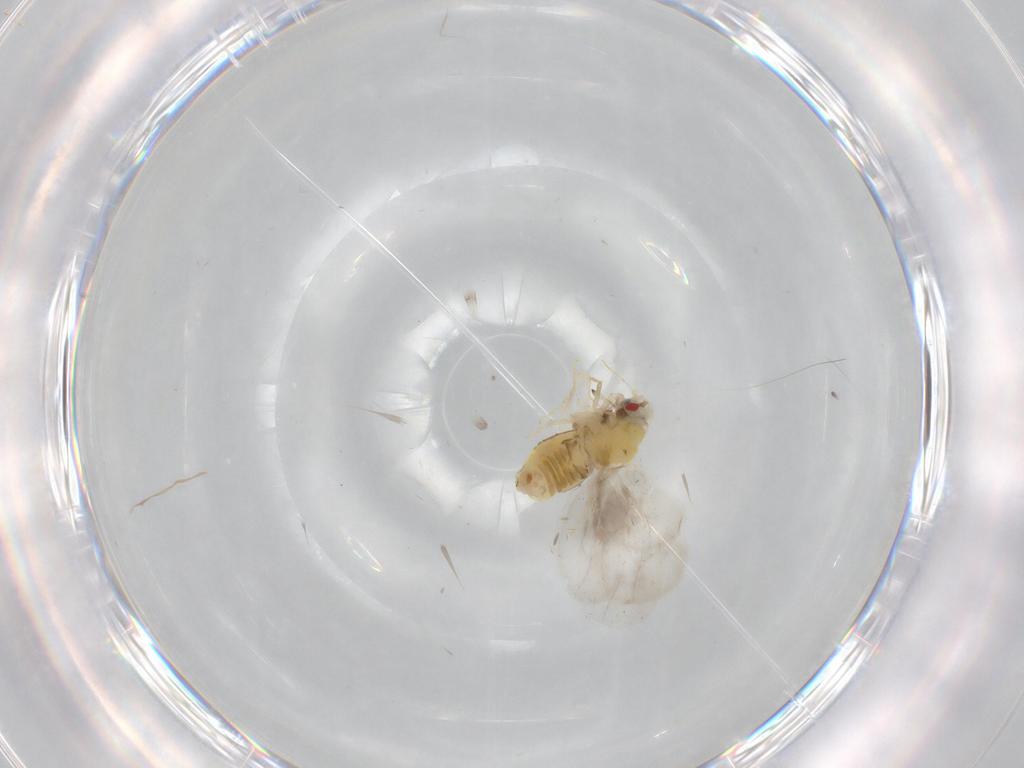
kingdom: Animalia
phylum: Arthropoda
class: Insecta
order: Hemiptera
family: Aleyrodidae
